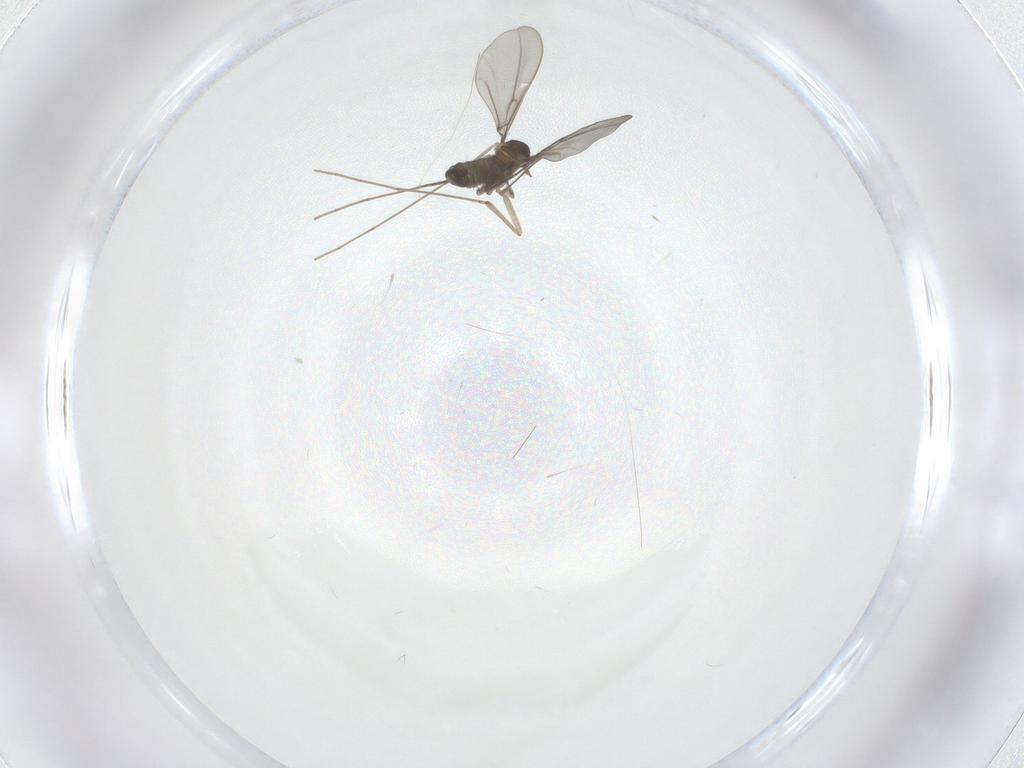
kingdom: Animalia
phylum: Arthropoda
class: Insecta
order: Diptera
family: Cecidomyiidae
